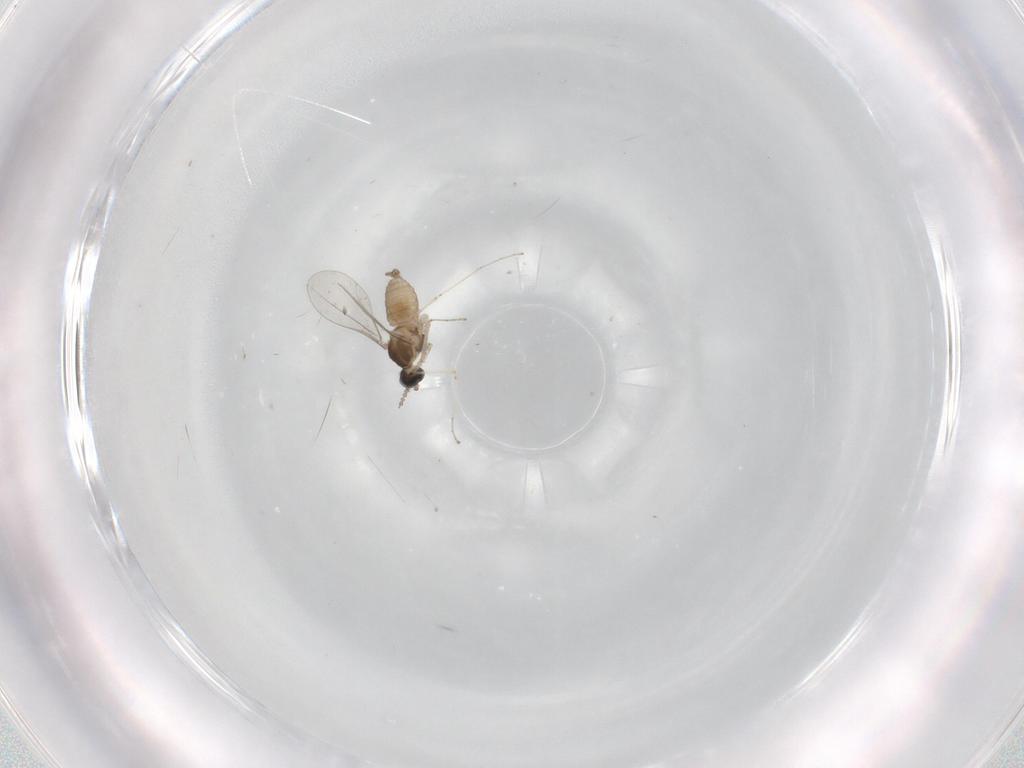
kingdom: Animalia
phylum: Arthropoda
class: Insecta
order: Diptera
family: Cecidomyiidae
